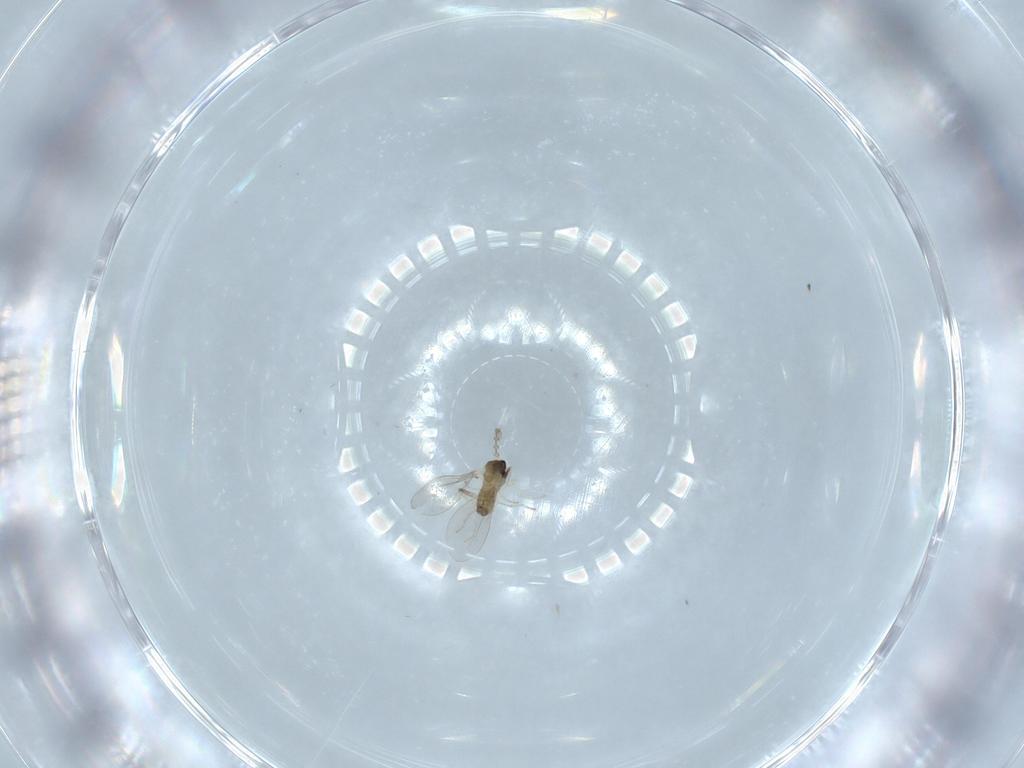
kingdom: Animalia
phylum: Arthropoda
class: Insecta
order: Diptera
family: Cecidomyiidae
